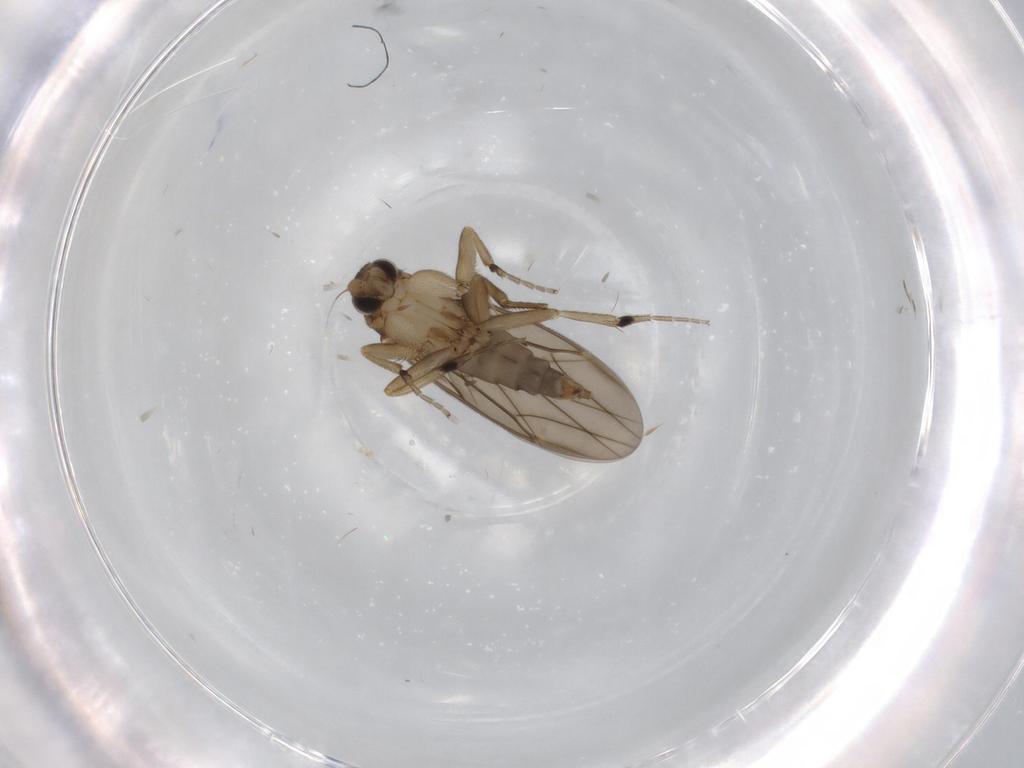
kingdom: Animalia
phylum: Arthropoda
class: Insecta
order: Diptera
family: Phoridae
